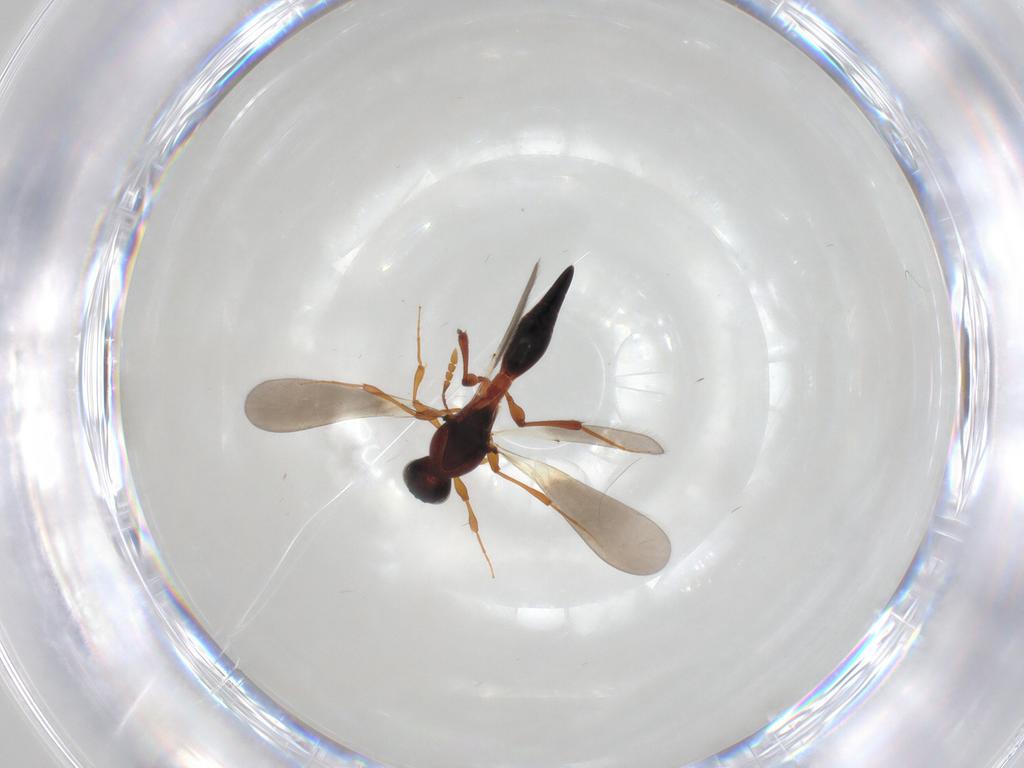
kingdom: Animalia
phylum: Arthropoda
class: Insecta
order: Hymenoptera
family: Platygastridae
